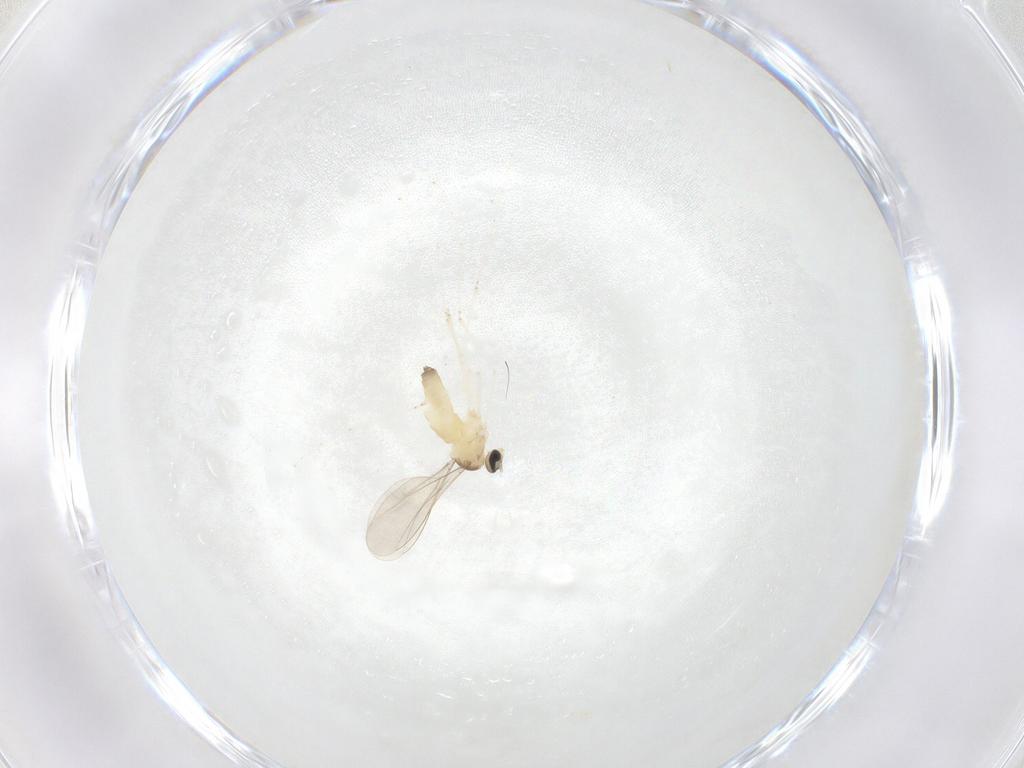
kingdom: Animalia
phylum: Arthropoda
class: Insecta
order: Diptera
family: Cecidomyiidae
